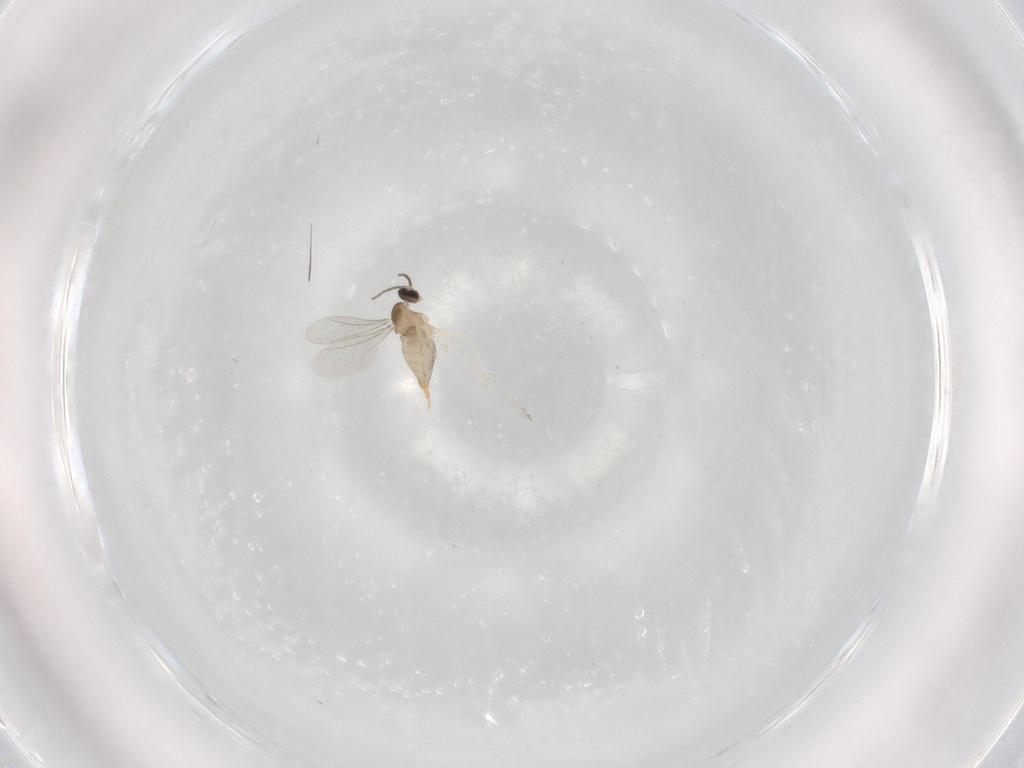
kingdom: Animalia
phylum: Arthropoda
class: Insecta
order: Diptera
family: Cecidomyiidae
